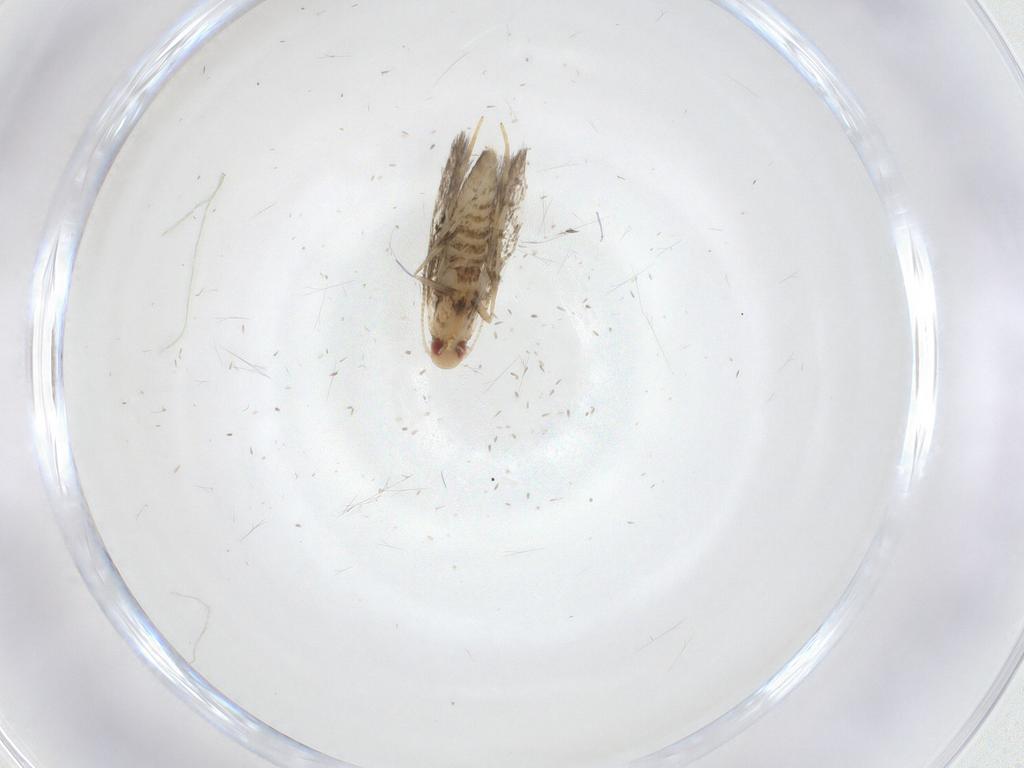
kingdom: Animalia
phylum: Arthropoda
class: Insecta
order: Lepidoptera
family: Gracillariidae
